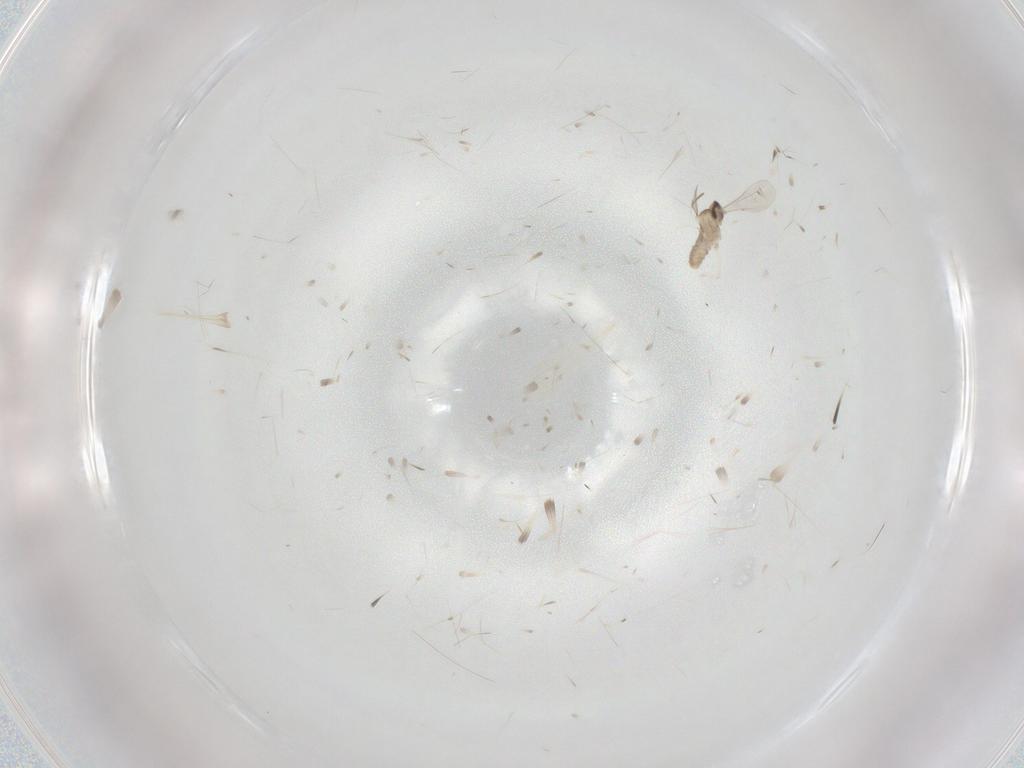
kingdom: Animalia
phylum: Arthropoda
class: Insecta
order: Diptera
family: Cecidomyiidae
